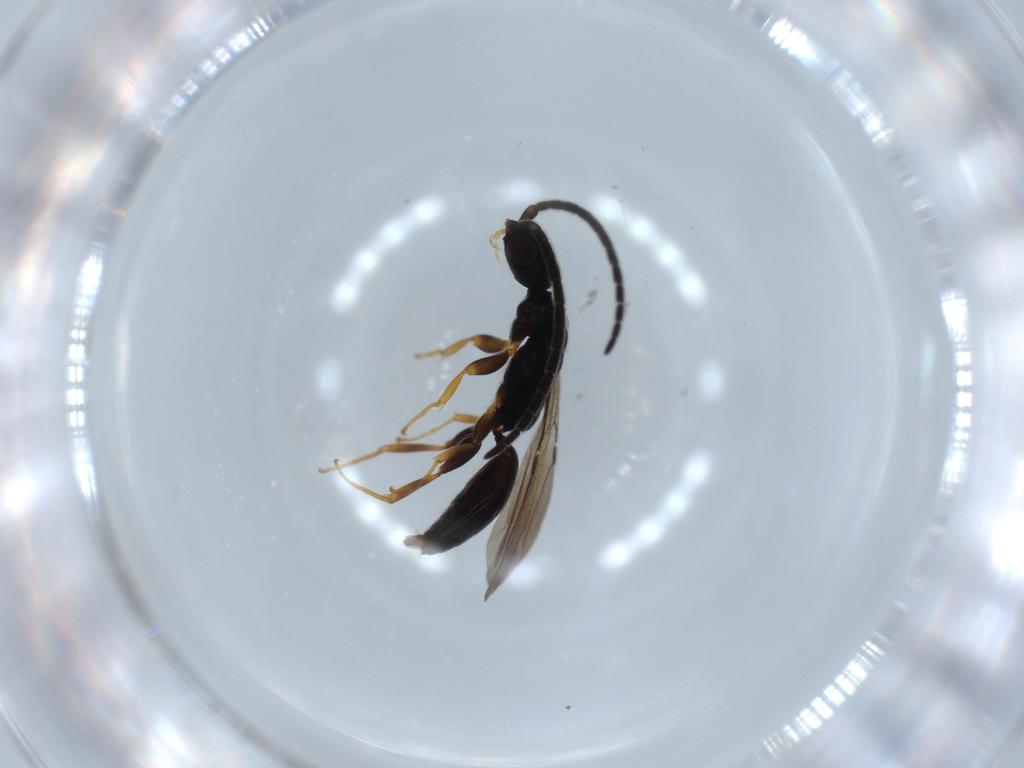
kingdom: Animalia
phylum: Arthropoda
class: Insecta
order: Hymenoptera
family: Bethylidae
